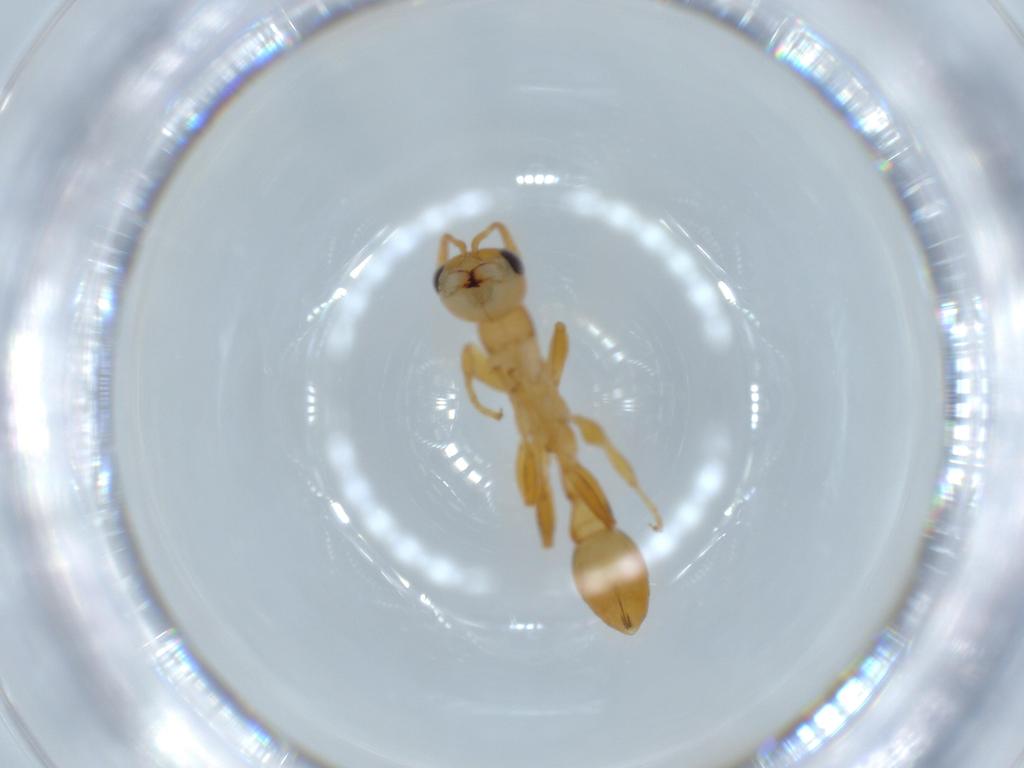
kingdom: Animalia
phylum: Arthropoda
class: Insecta
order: Hymenoptera
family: Formicidae
